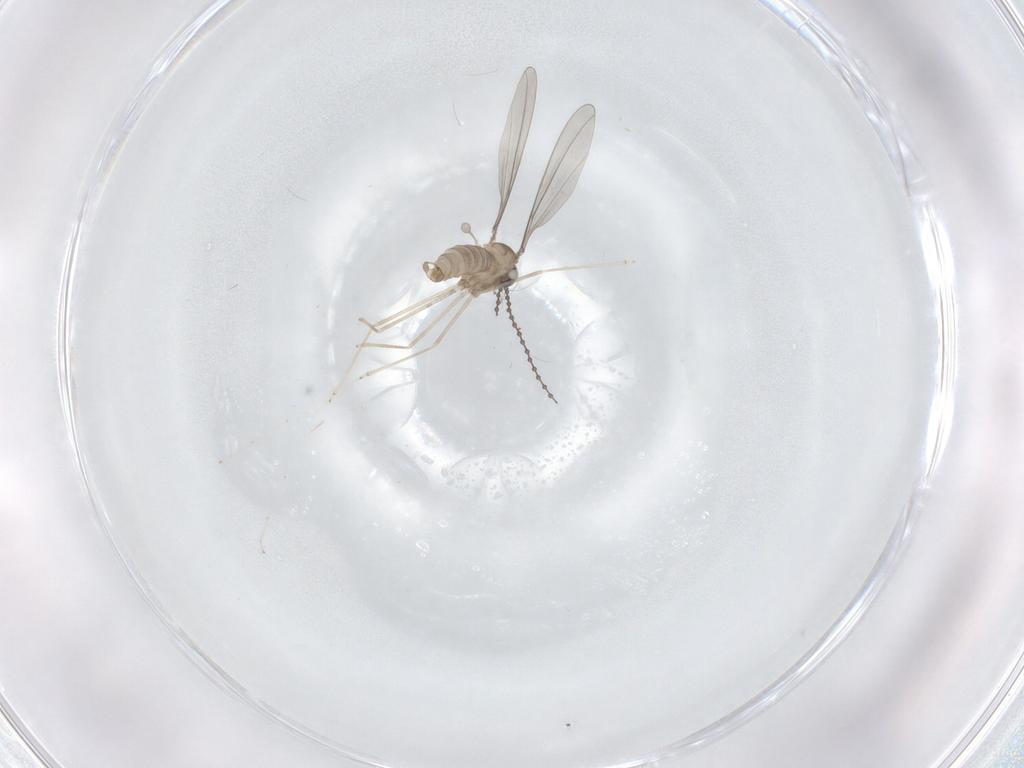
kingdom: Animalia
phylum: Arthropoda
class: Insecta
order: Diptera
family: Cecidomyiidae
